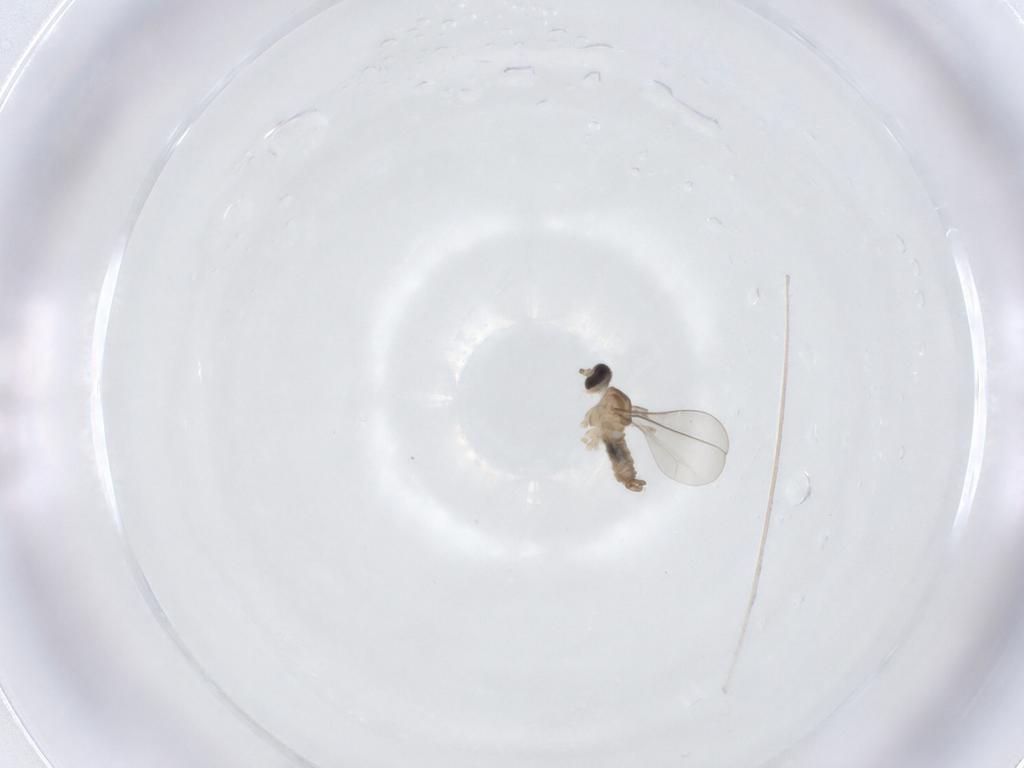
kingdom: Animalia
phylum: Arthropoda
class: Insecta
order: Diptera
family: Cecidomyiidae
